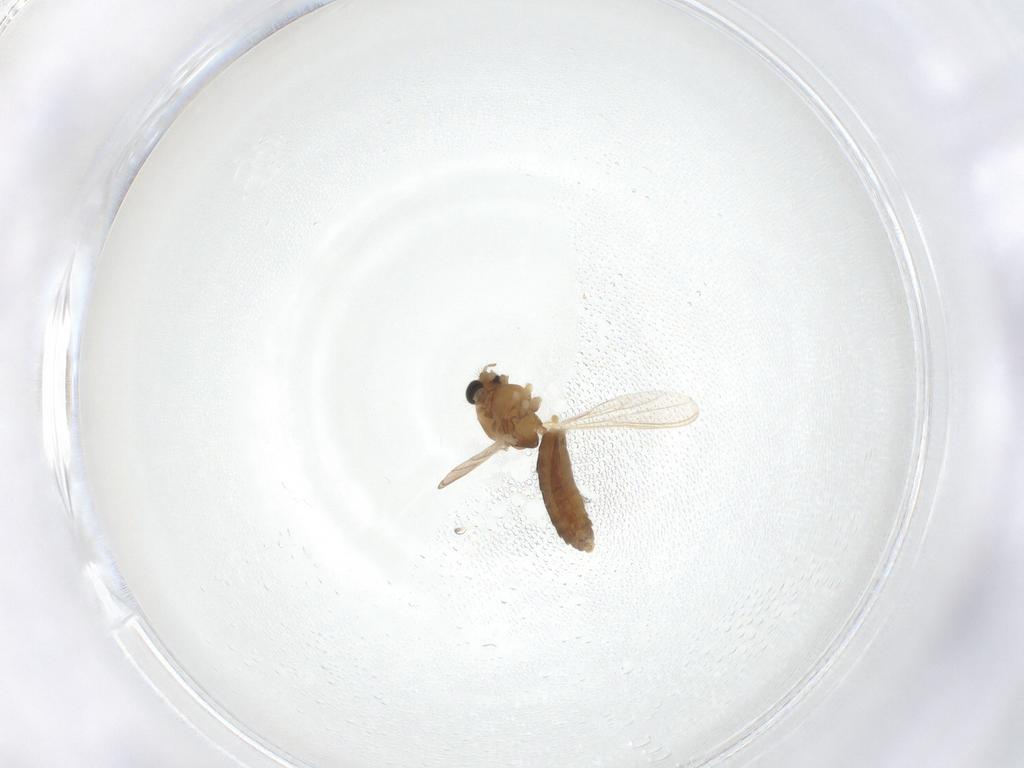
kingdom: Animalia
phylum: Arthropoda
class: Insecta
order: Diptera
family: Chironomidae
